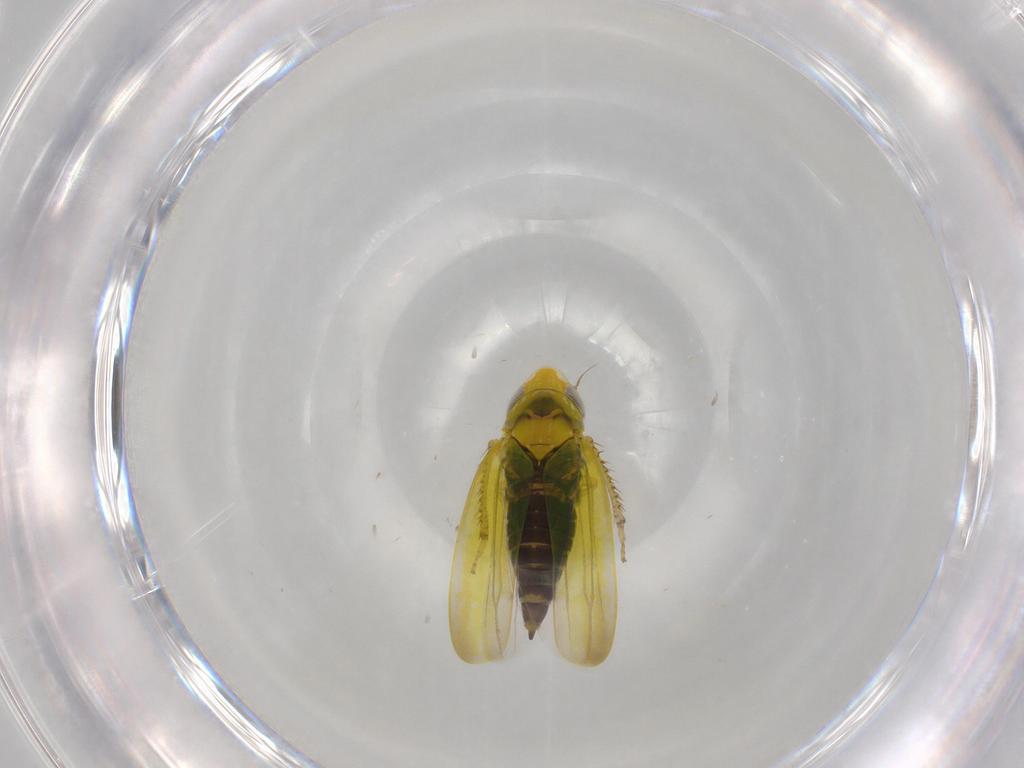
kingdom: Animalia
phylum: Arthropoda
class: Insecta
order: Hemiptera
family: Cicadellidae
